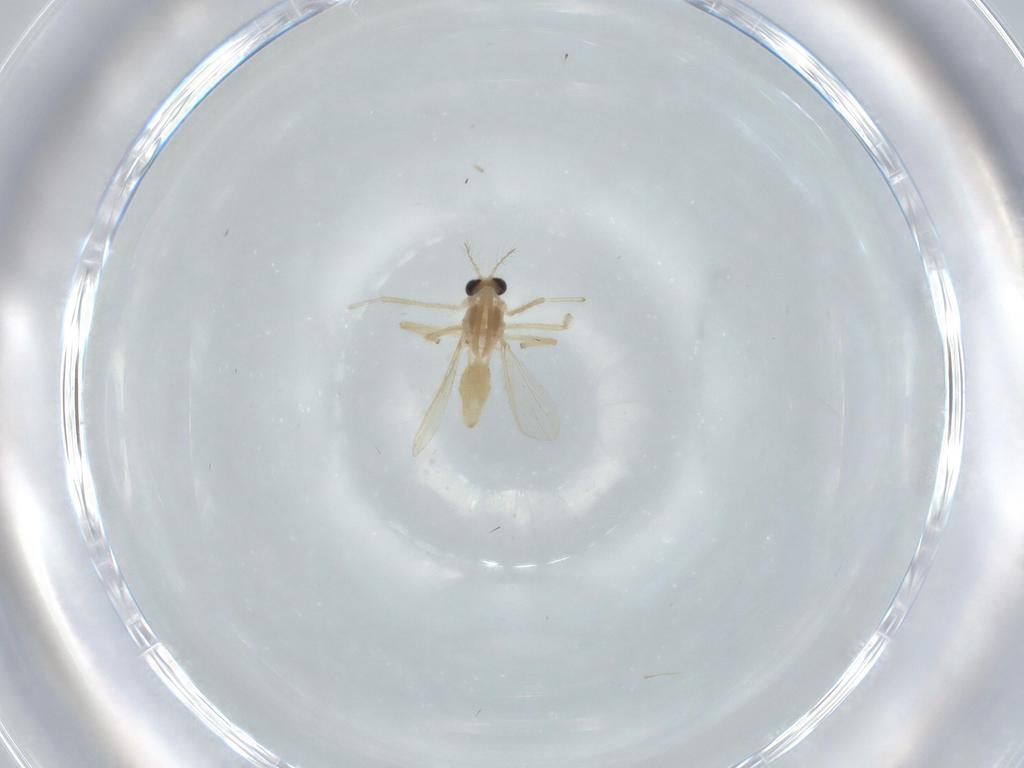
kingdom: Animalia
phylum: Arthropoda
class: Insecta
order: Diptera
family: Chironomidae
